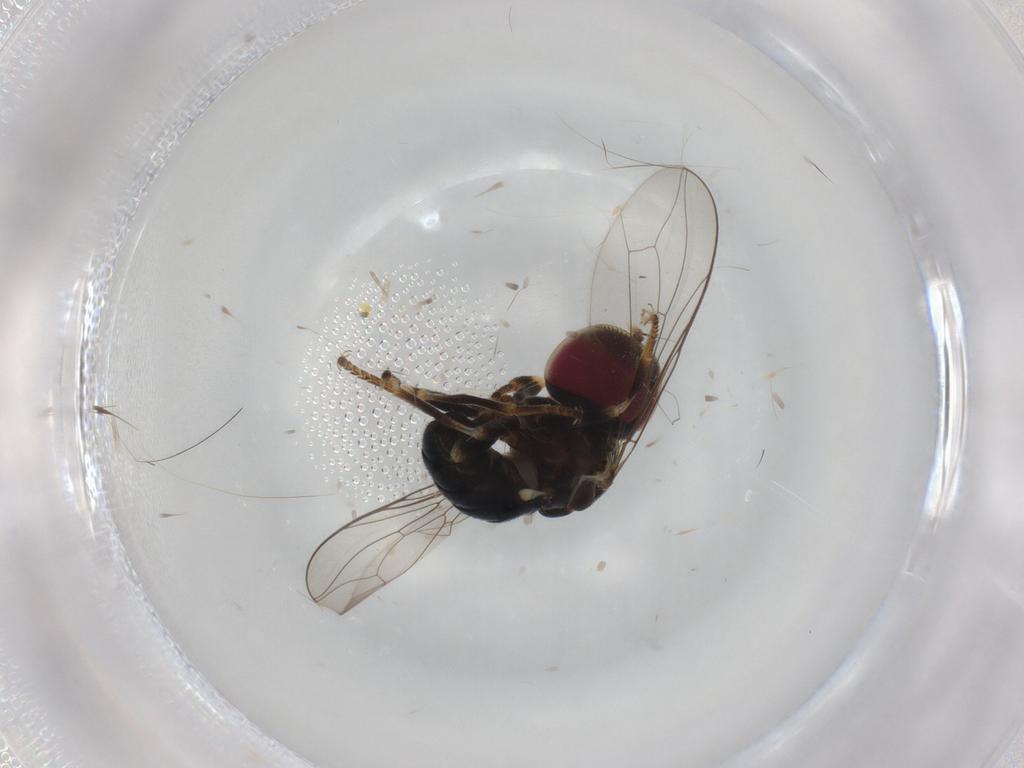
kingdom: Animalia
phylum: Arthropoda
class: Insecta
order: Diptera
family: Pipunculidae
